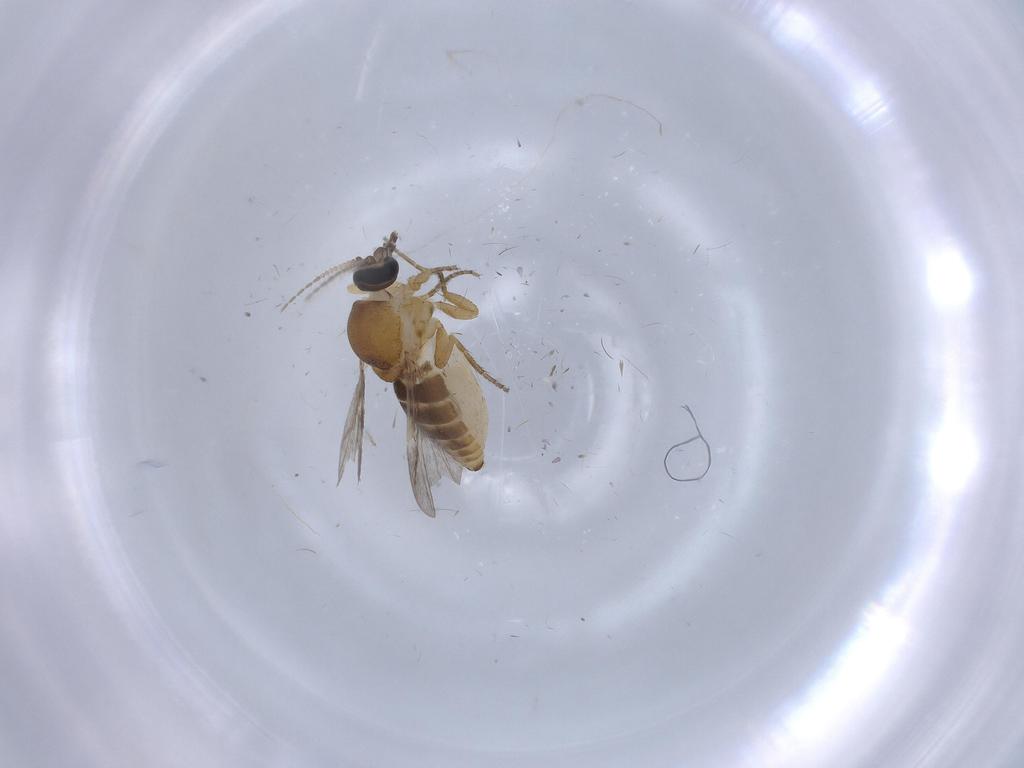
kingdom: Animalia
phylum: Arthropoda
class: Insecta
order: Diptera
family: Ceratopogonidae
